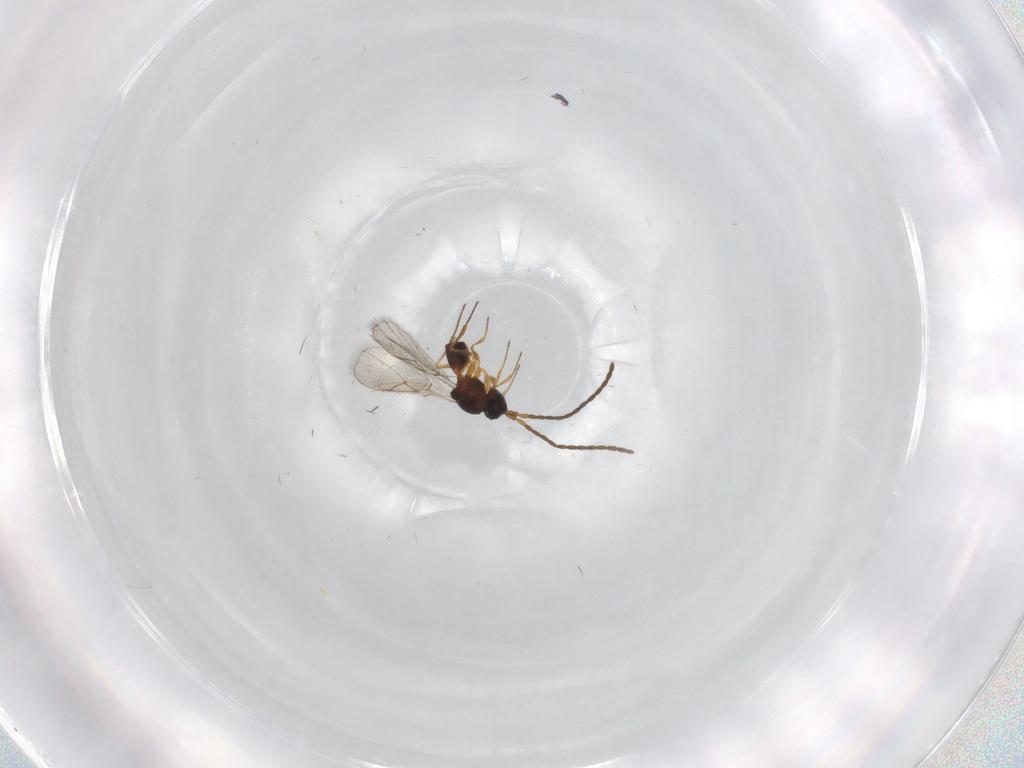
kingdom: Animalia
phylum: Arthropoda
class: Insecta
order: Hymenoptera
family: Figitidae
